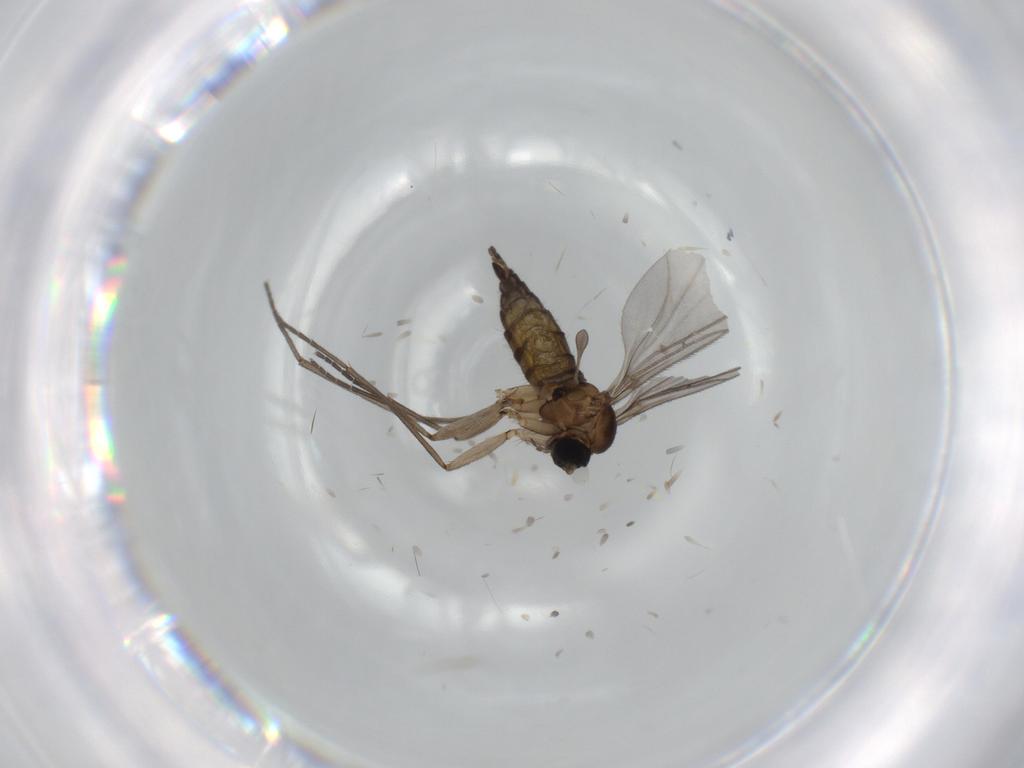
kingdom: Animalia
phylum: Arthropoda
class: Insecta
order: Diptera
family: Sciaridae
